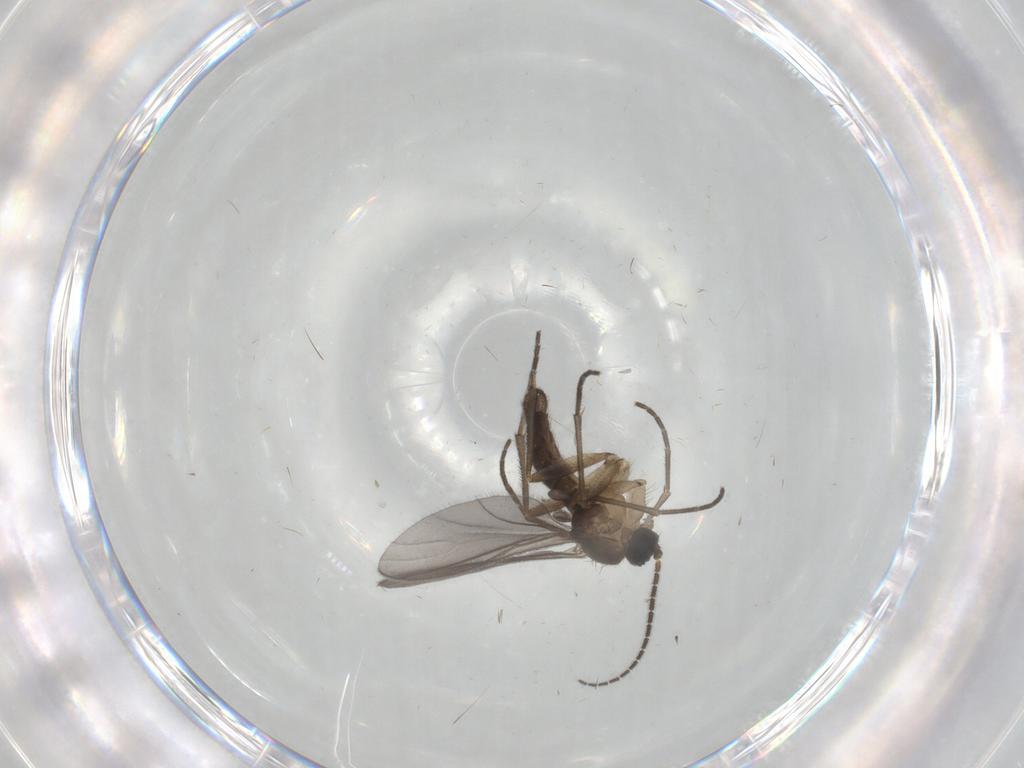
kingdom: Animalia
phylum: Arthropoda
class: Insecta
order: Diptera
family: Sciaridae
